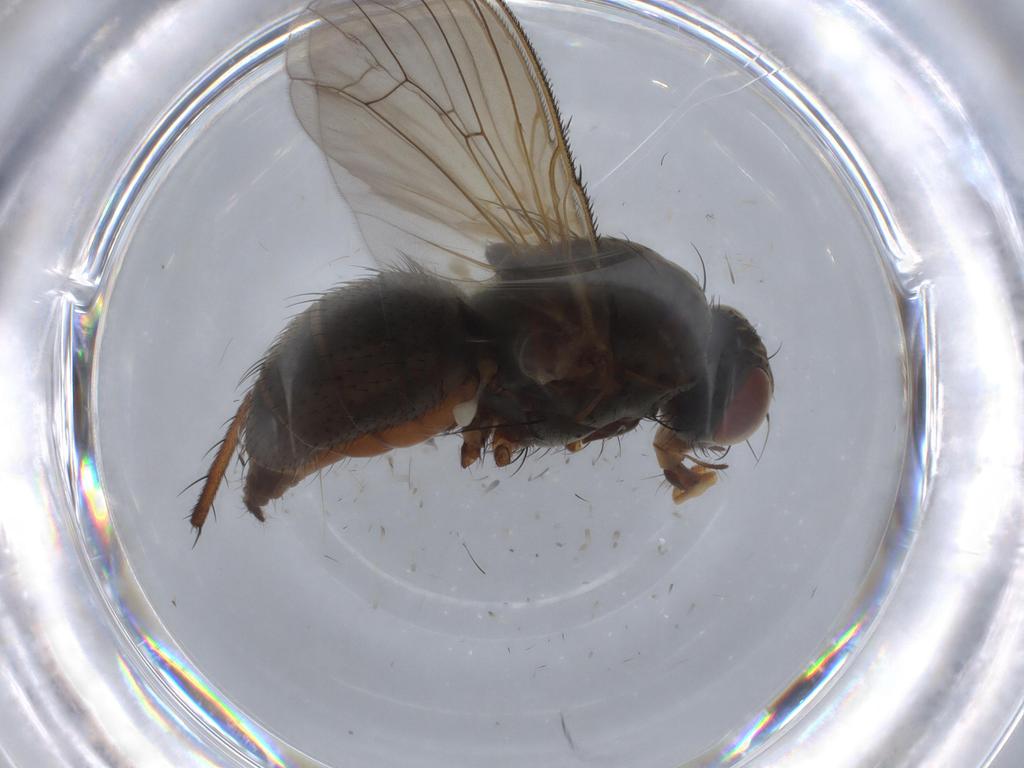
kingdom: Animalia
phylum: Arthropoda
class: Insecta
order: Diptera
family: Anthomyiidae
